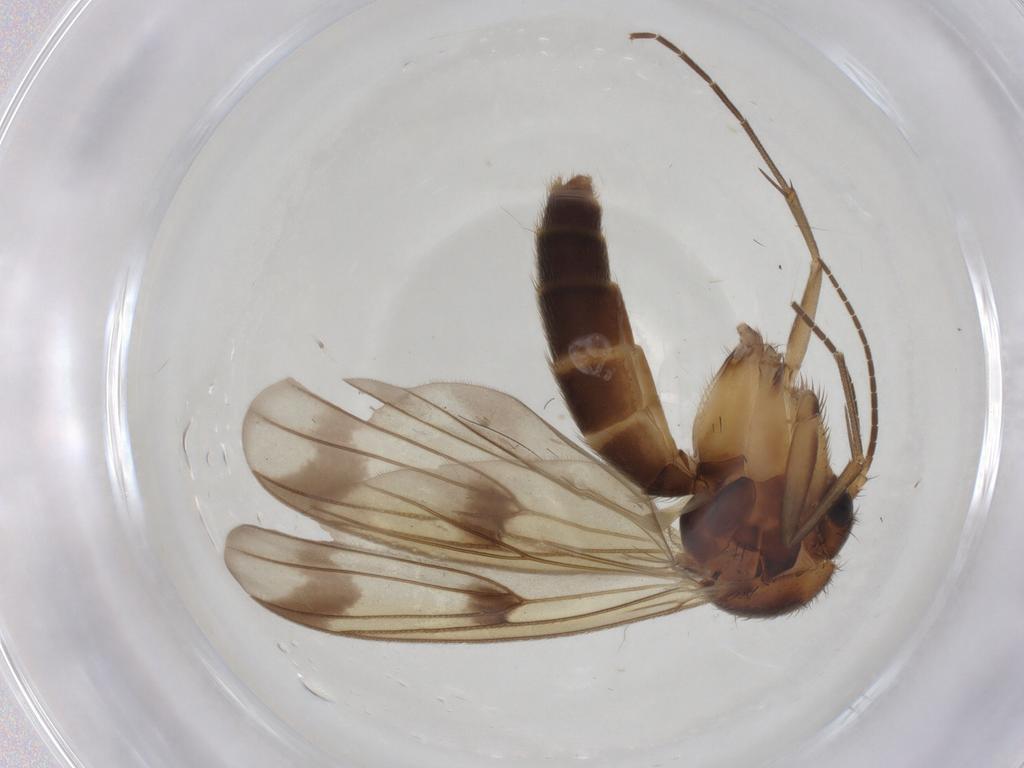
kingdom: Animalia
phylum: Arthropoda
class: Insecta
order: Diptera
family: Mycetophilidae
